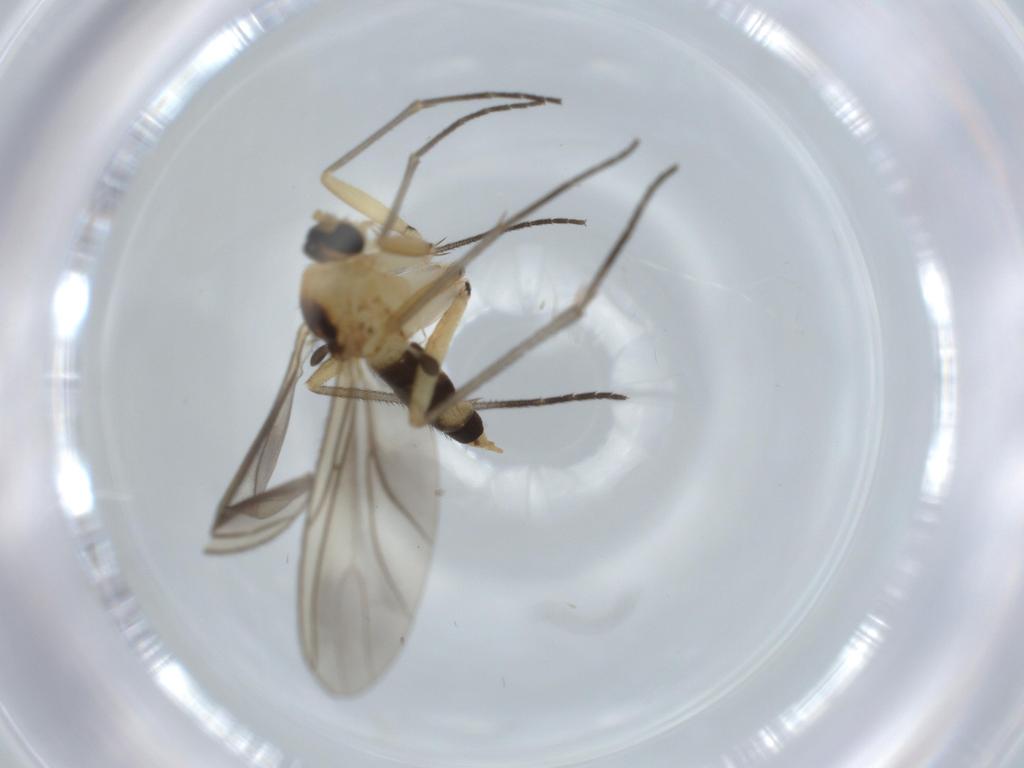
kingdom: Animalia
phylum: Arthropoda
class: Insecta
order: Diptera
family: Sciaridae
